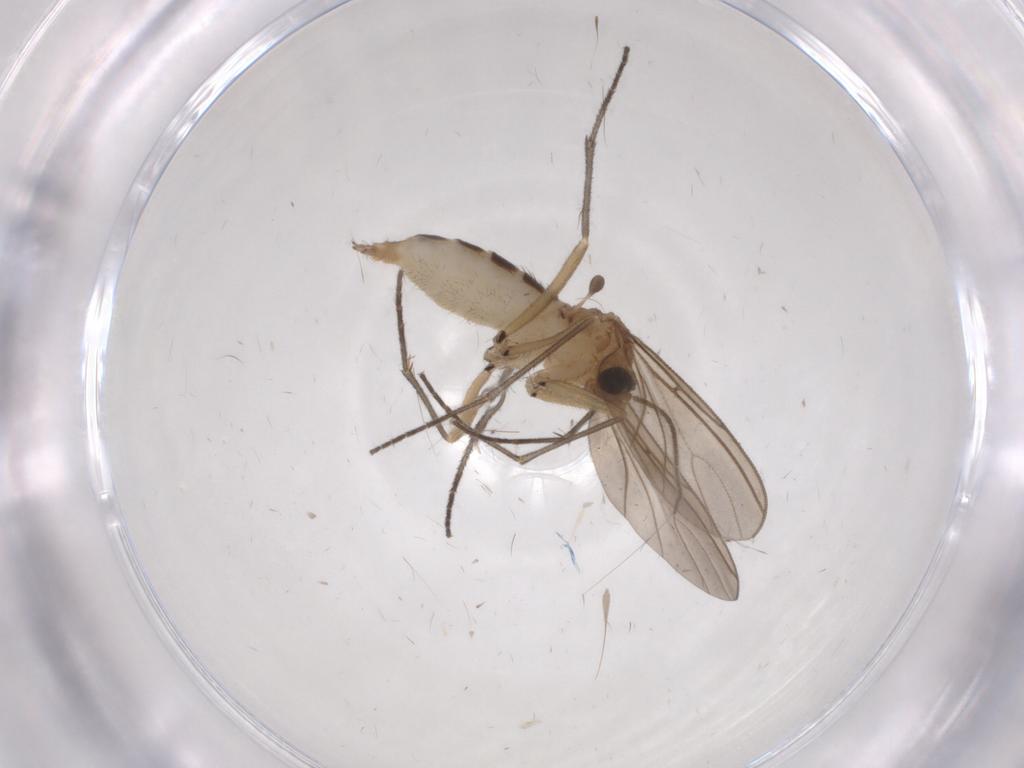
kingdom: Animalia
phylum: Arthropoda
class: Insecta
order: Diptera
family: Sciaridae
